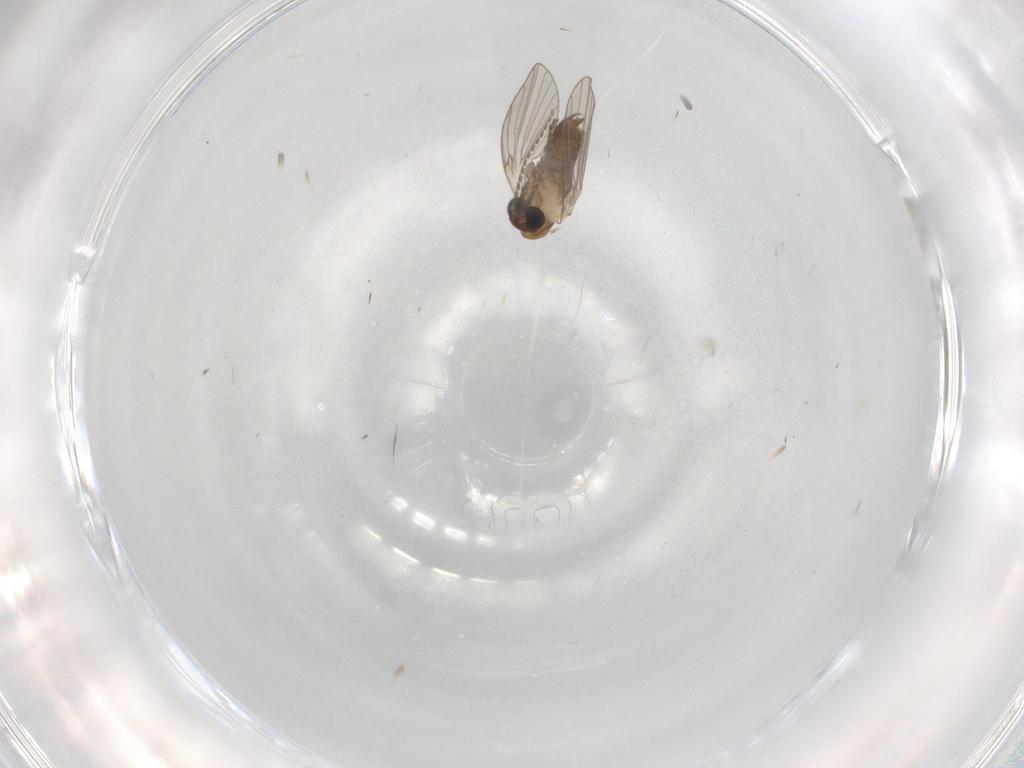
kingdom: Animalia
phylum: Arthropoda
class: Insecta
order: Diptera
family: Psychodidae
